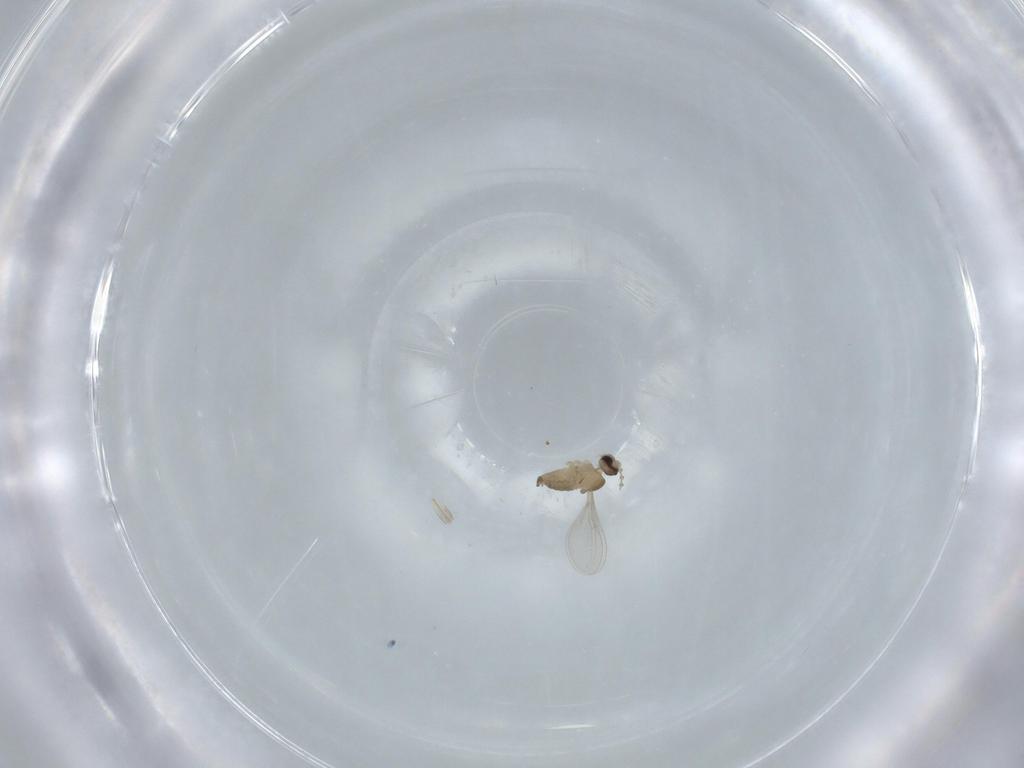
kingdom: Animalia
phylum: Arthropoda
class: Insecta
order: Diptera
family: Cecidomyiidae
